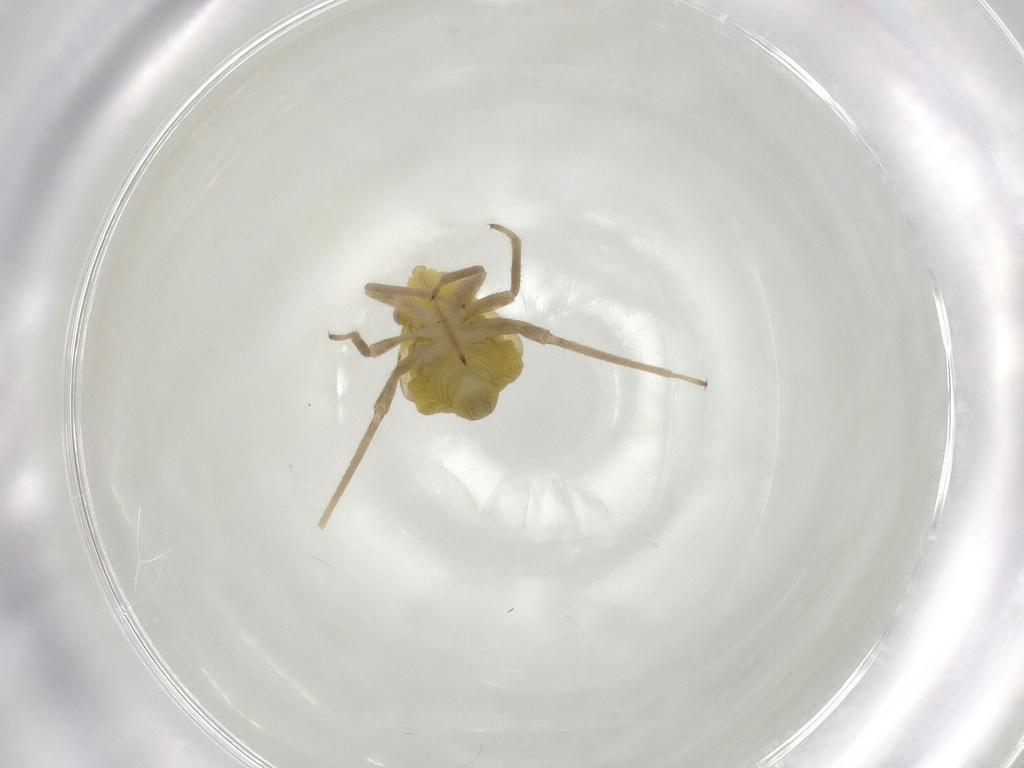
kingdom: Animalia
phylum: Arthropoda
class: Insecta
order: Hemiptera
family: Miridae
